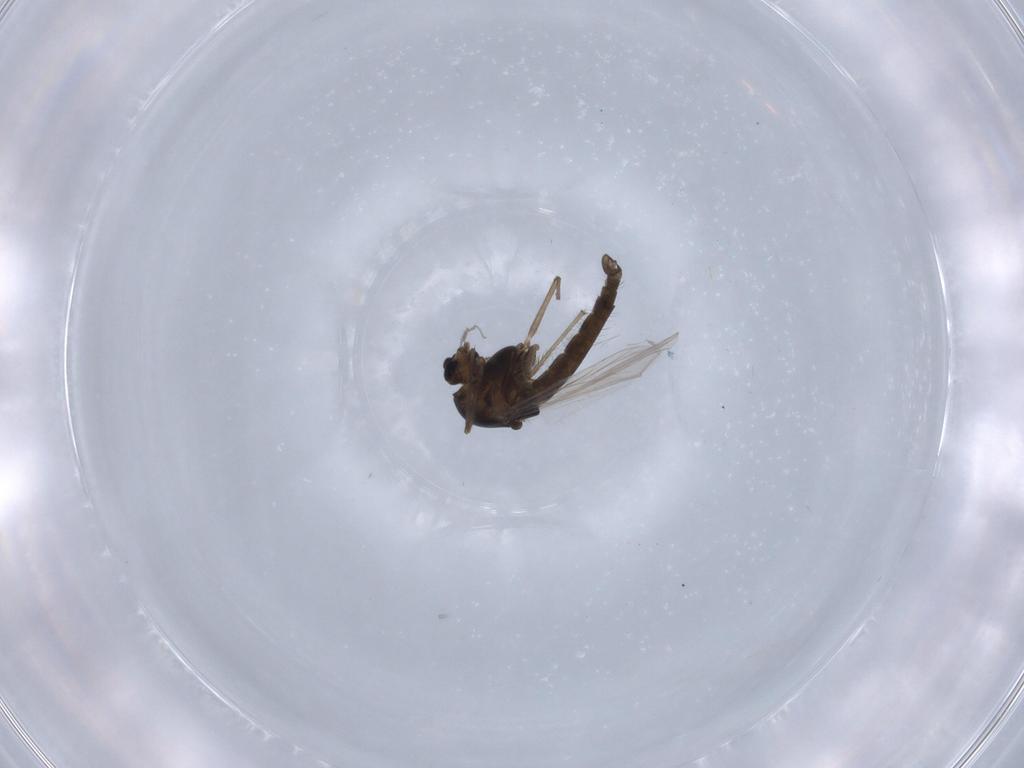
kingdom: Animalia
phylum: Arthropoda
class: Insecta
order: Diptera
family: Chironomidae
